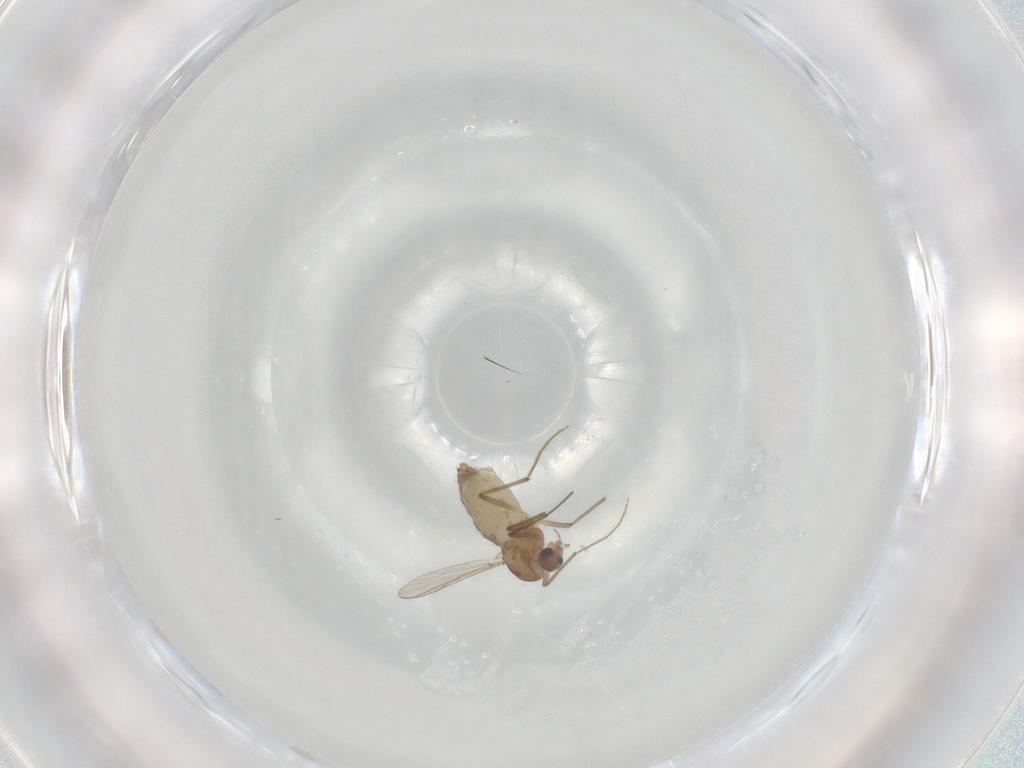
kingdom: Animalia
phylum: Arthropoda
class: Insecta
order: Diptera
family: Chironomidae
